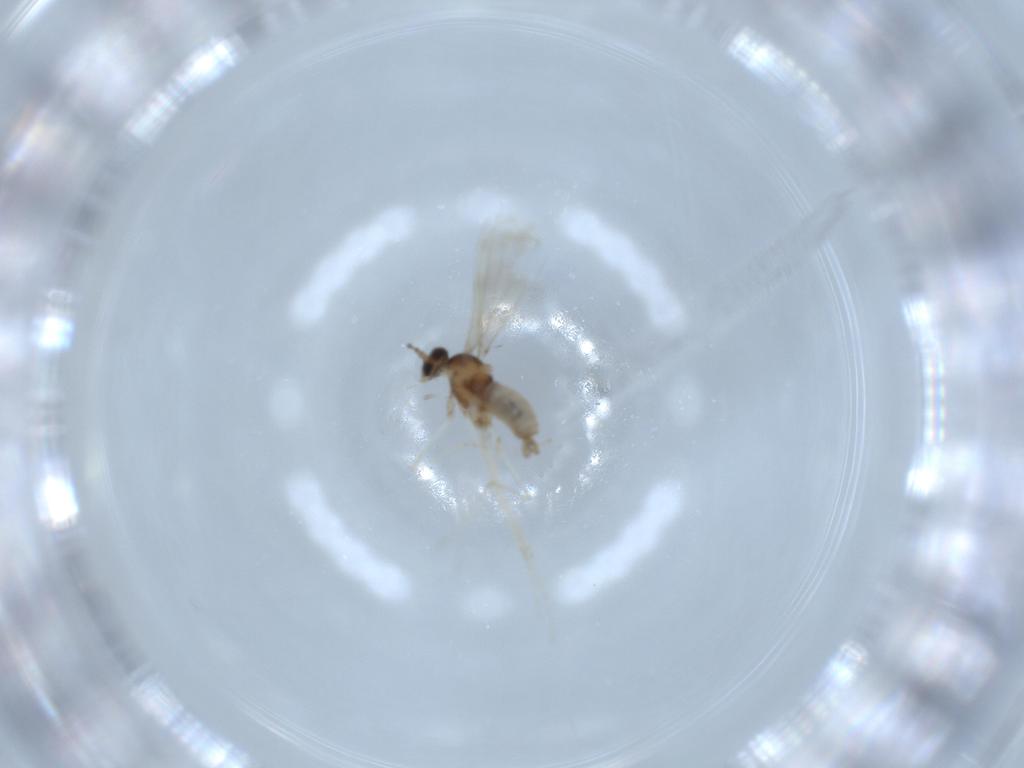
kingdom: Animalia
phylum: Arthropoda
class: Insecta
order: Diptera
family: Cecidomyiidae
